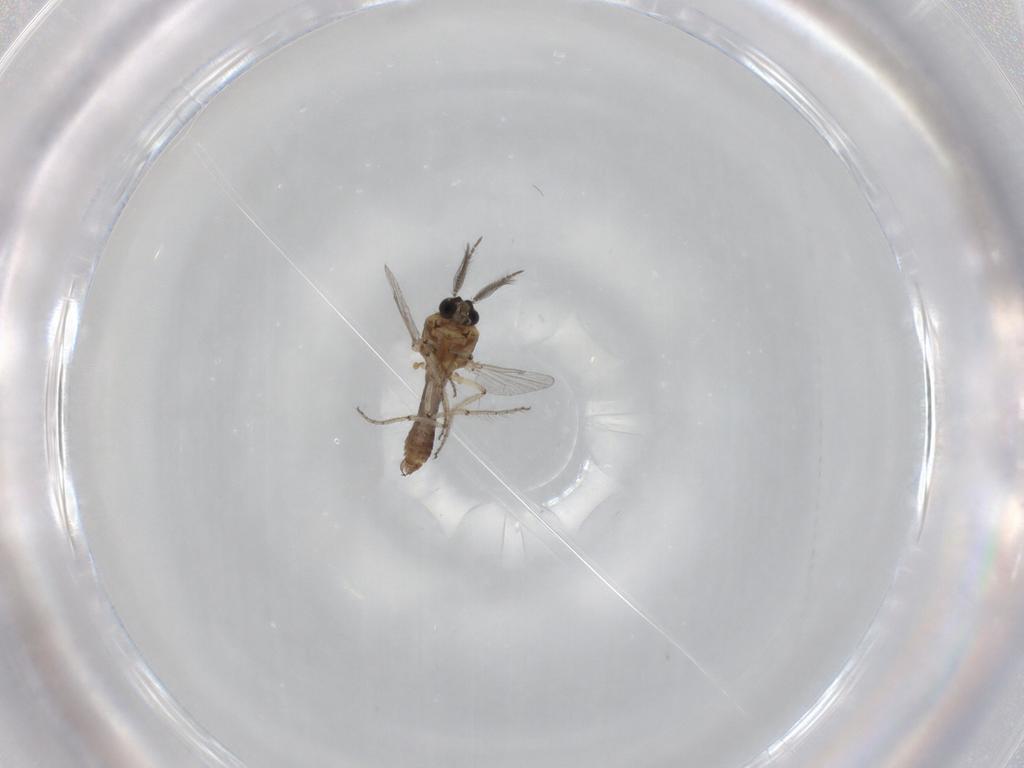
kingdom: Animalia
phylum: Arthropoda
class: Insecta
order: Diptera
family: Ceratopogonidae
